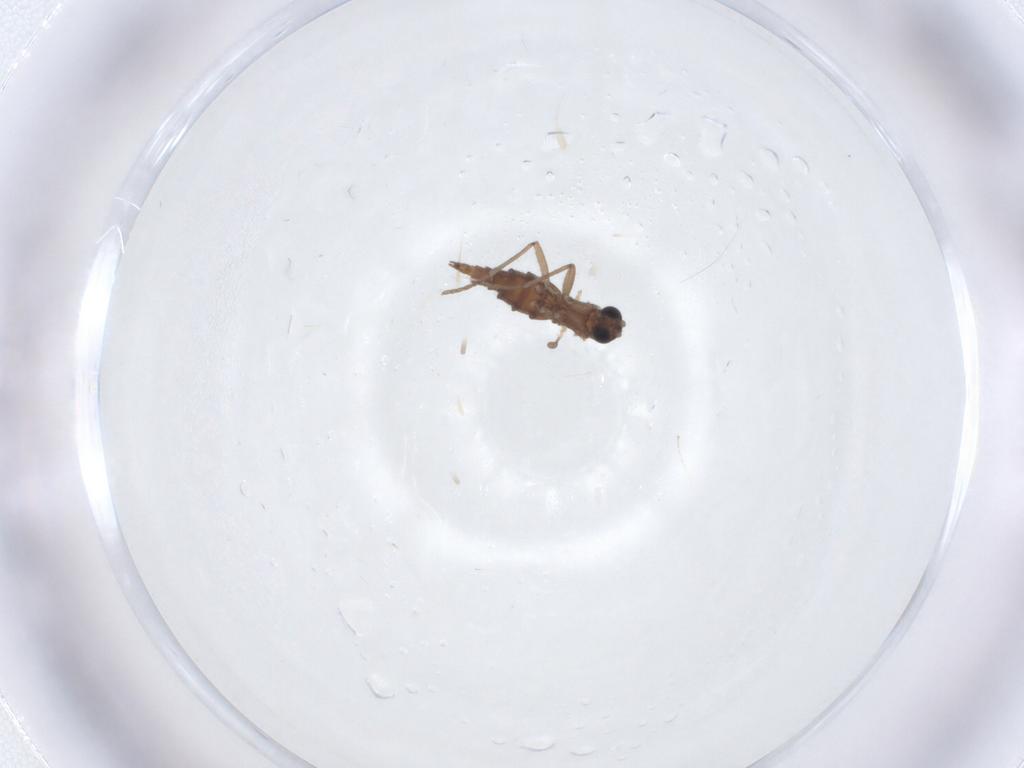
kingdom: Animalia
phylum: Arthropoda
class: Insecta
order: Diptera
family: Sciaridae
